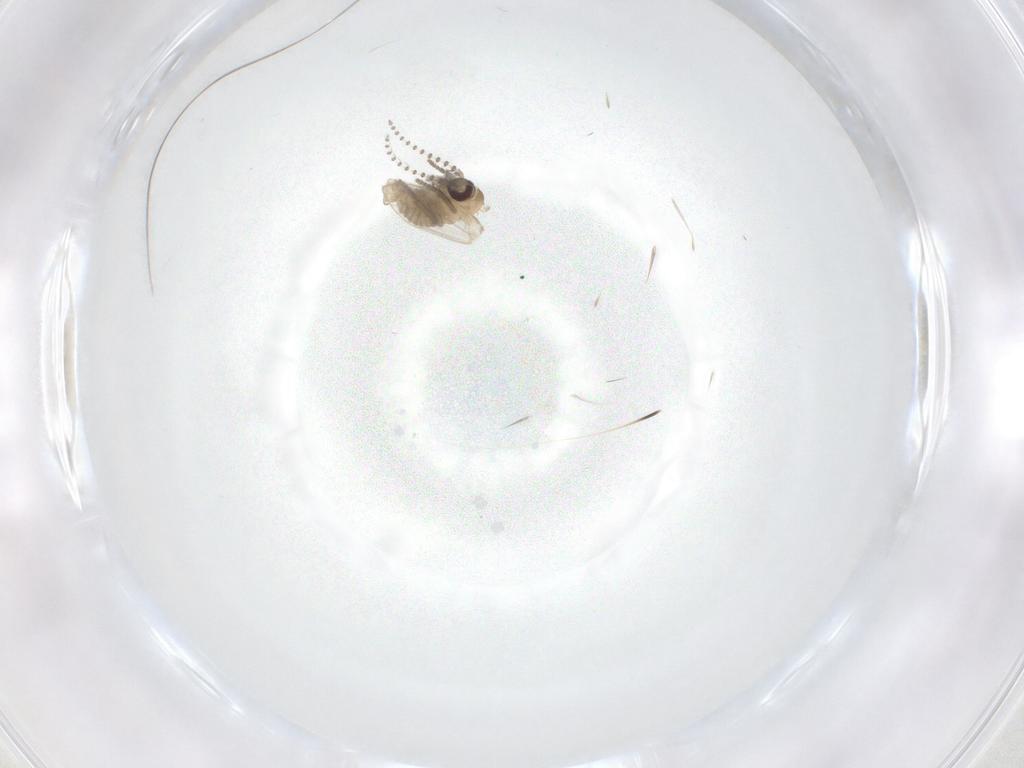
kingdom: Animalia
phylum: Arthropoda
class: Insecta
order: Diptera
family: Psychodidae
